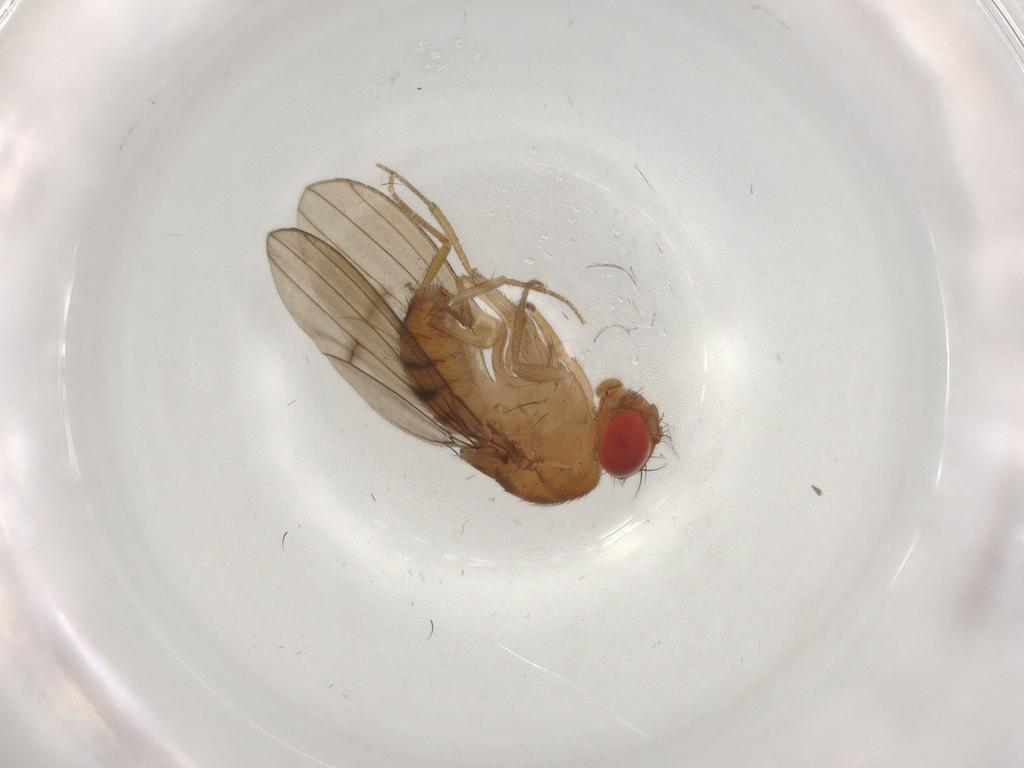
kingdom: Animalia
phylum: Arthropoda
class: Insecta
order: Diptera
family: Drosophilidae
